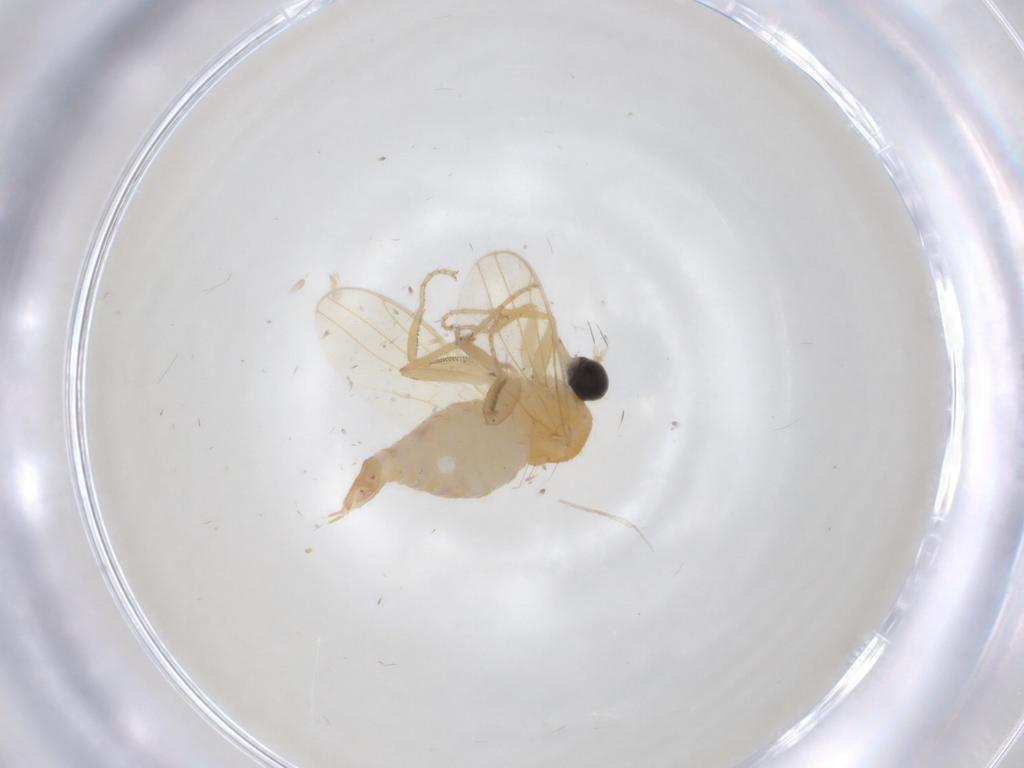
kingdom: Animalia
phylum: Arthropoda
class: Insecta
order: Diptera
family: Hybotidae
